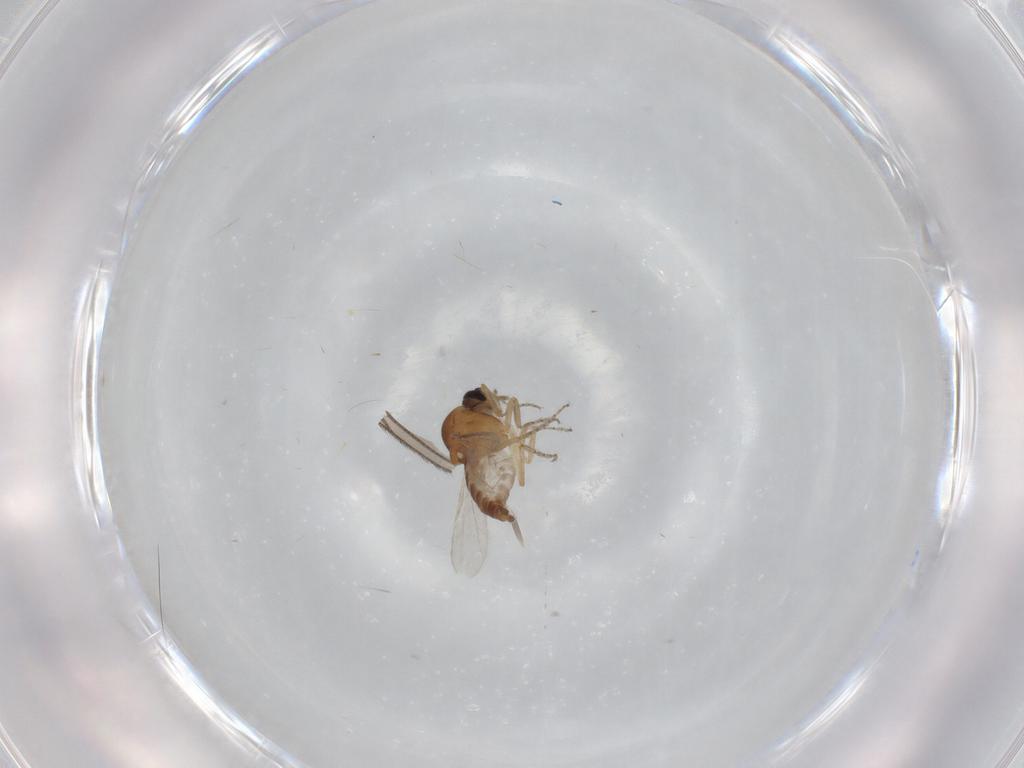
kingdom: Animalia
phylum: Arthropoda
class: Insecta
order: Diptera
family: Ceratopogonidae
